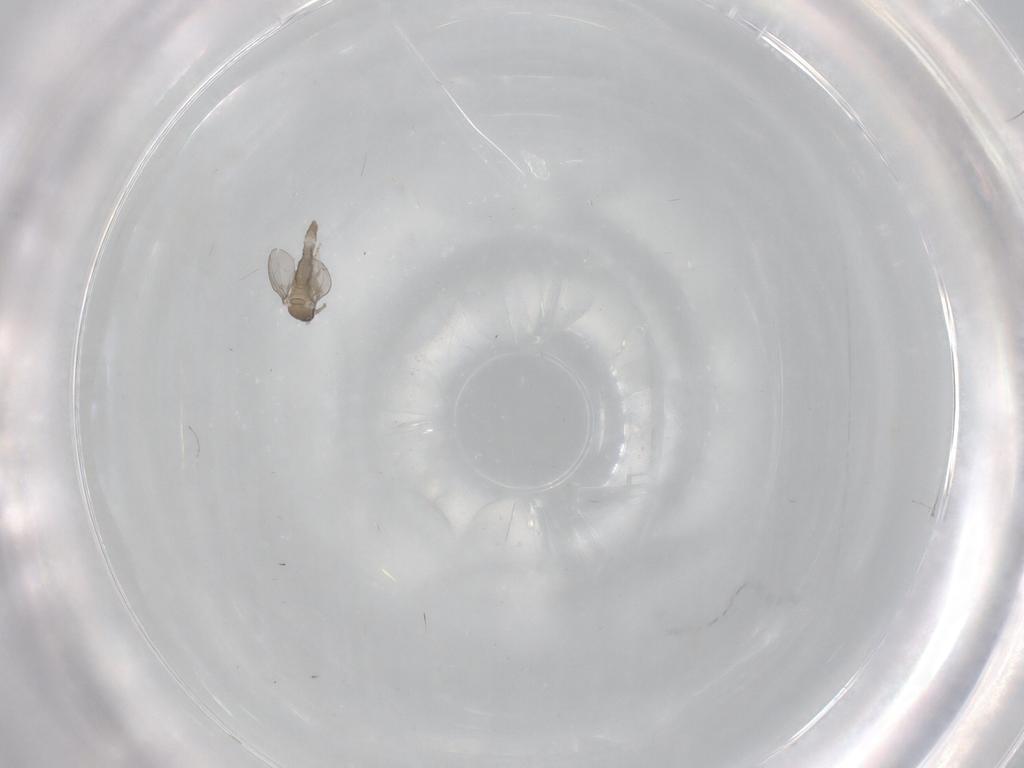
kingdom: Animalia
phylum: Arthropoda
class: Insecta
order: Diptera
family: Cecidomyiidae
